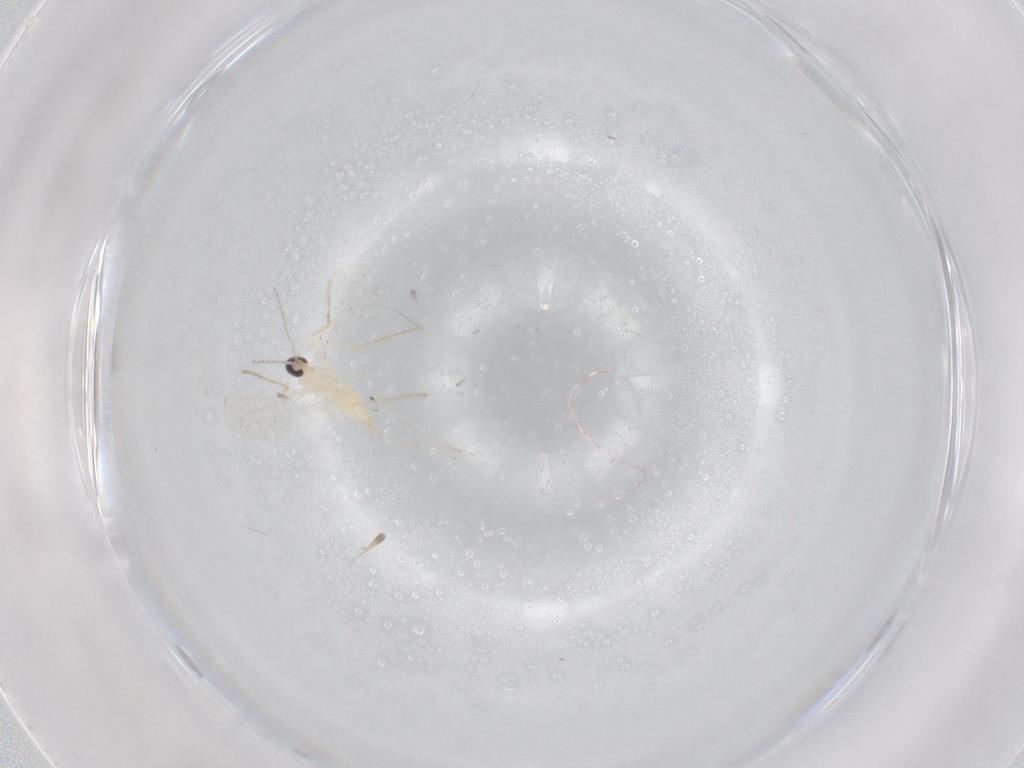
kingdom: Animalia
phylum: Arthropoda
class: Insecta
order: Diptera
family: Cecidomyiidae
